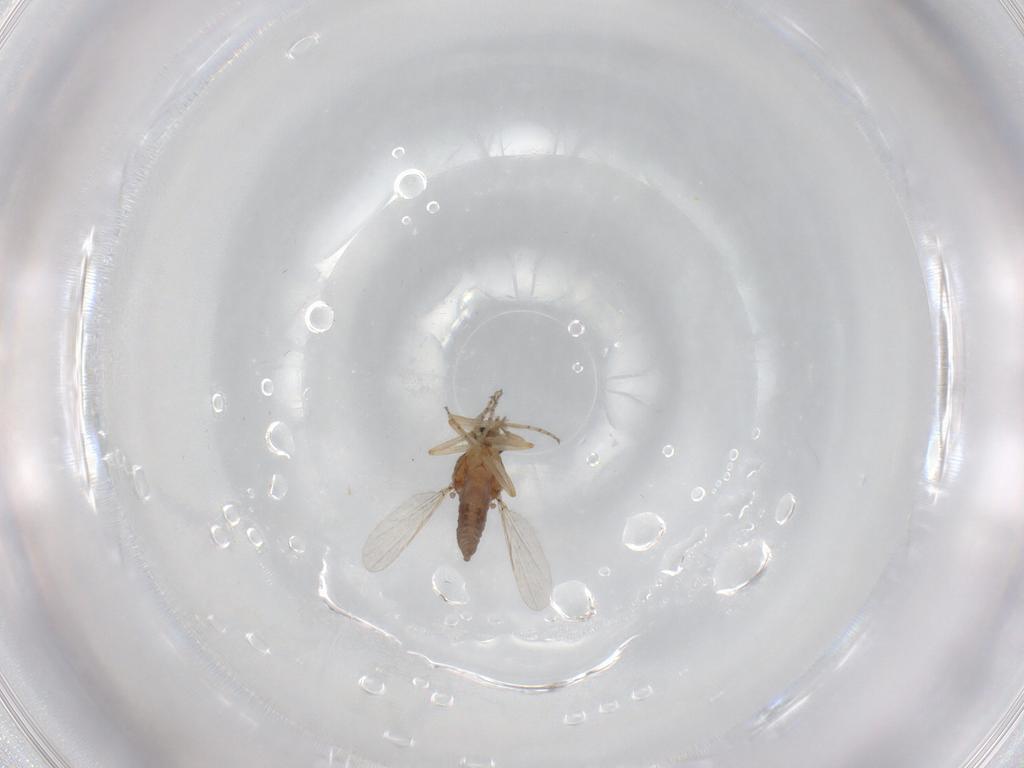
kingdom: Animalia
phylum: Arthropoda
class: Insecta
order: Diptera
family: Ceratopogonidae
